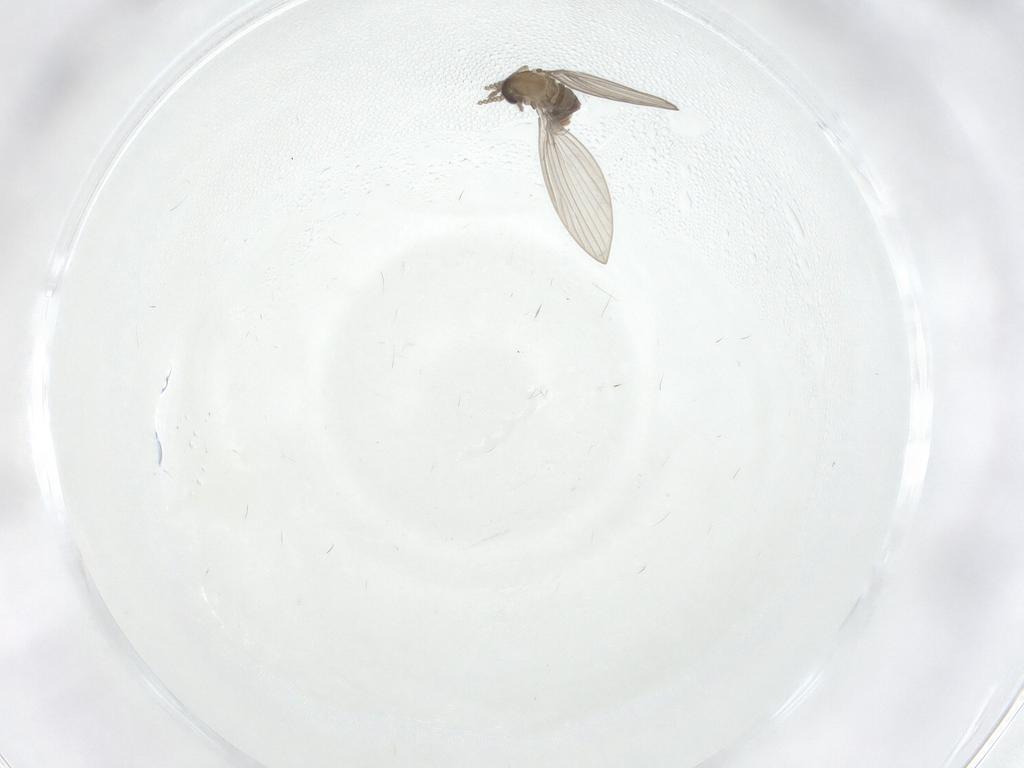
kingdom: Animalia
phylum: Arthropoda
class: Insecta
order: Diptera
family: Psychodidae
